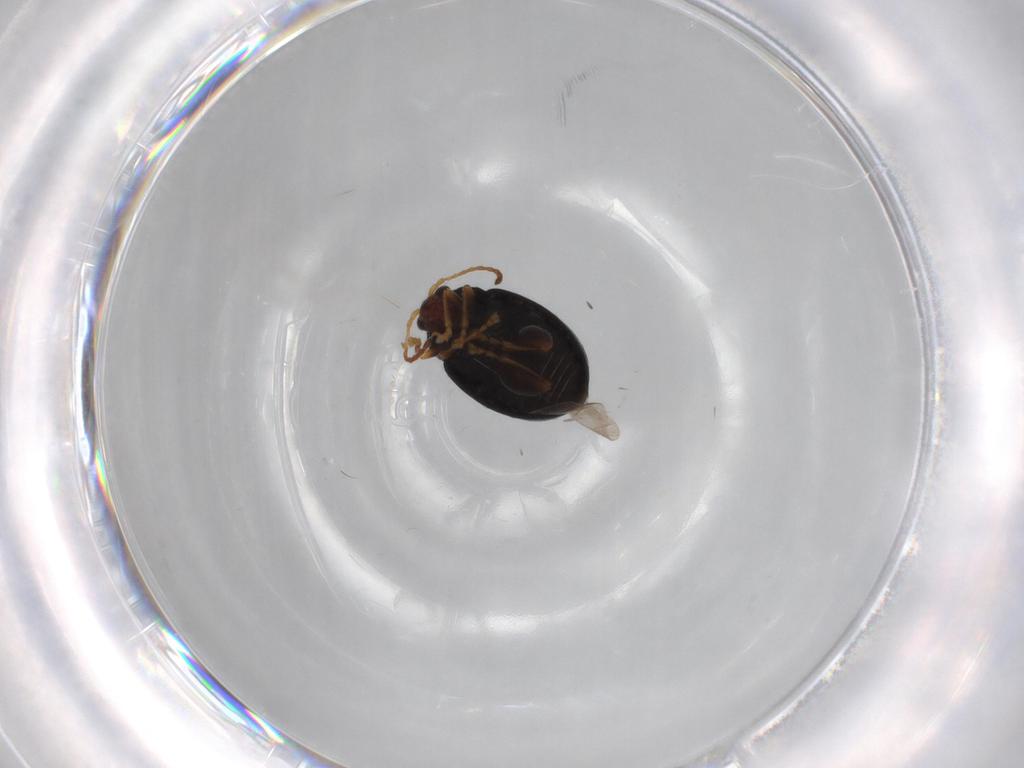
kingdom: Animalia
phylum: Arthropoda
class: Insecta
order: Coleoptera
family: Chrysomelidae
